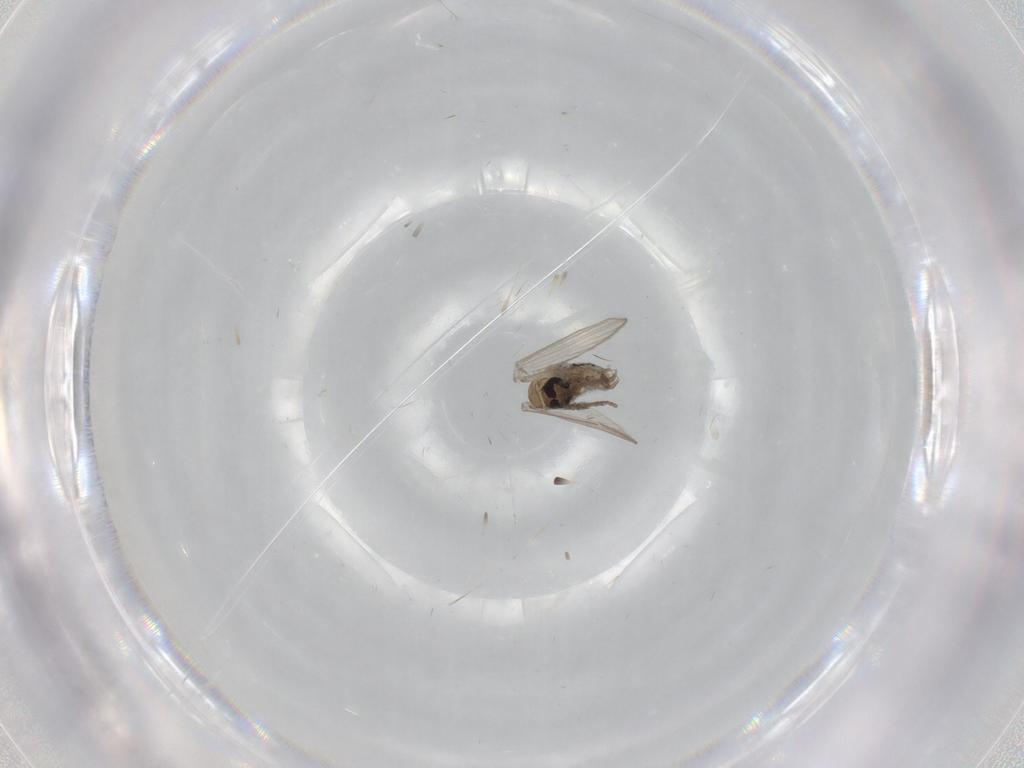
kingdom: Animalia
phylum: Arthropoda
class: Insecta
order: Diptera
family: Psychodidae
